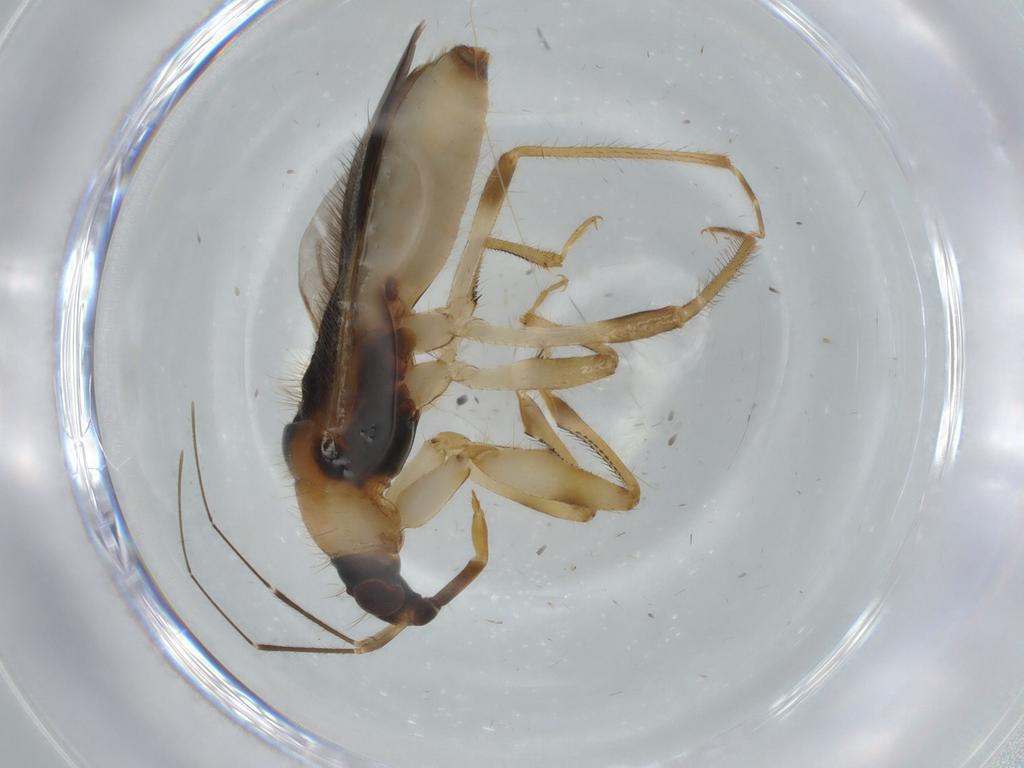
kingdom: Animalia
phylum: Arthropoda
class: Insecta
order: Hemiptera
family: Nabidae
